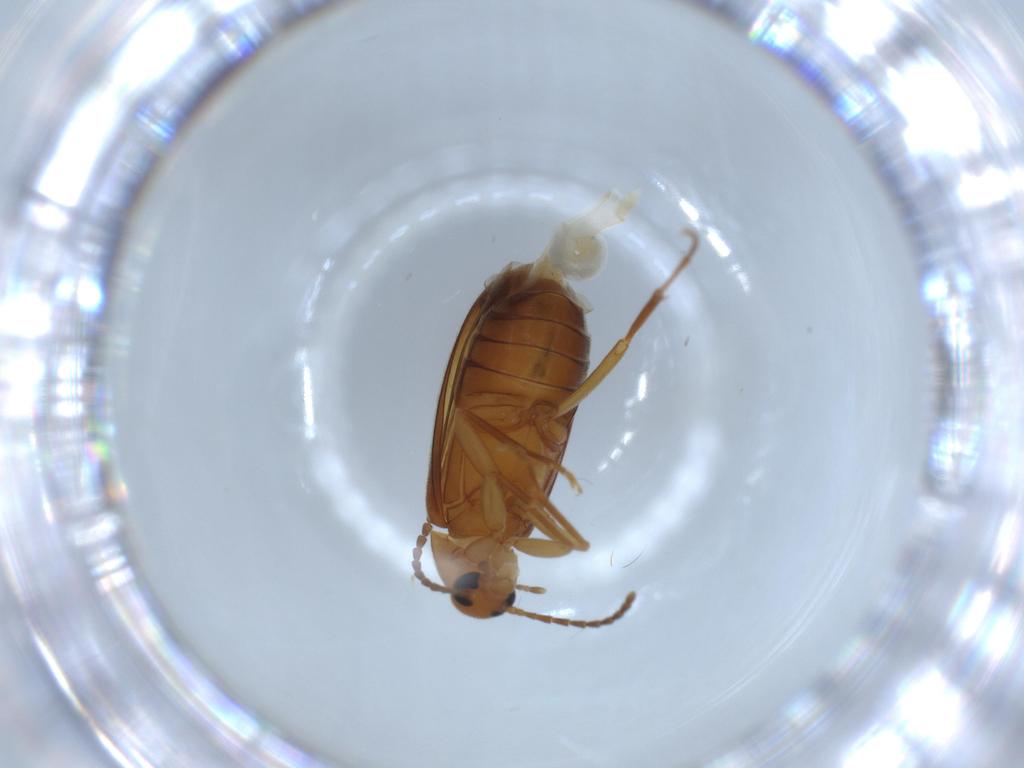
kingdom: Animalia
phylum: Arthropoda
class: Insecta
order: Coleoptera
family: Scraptiidae
